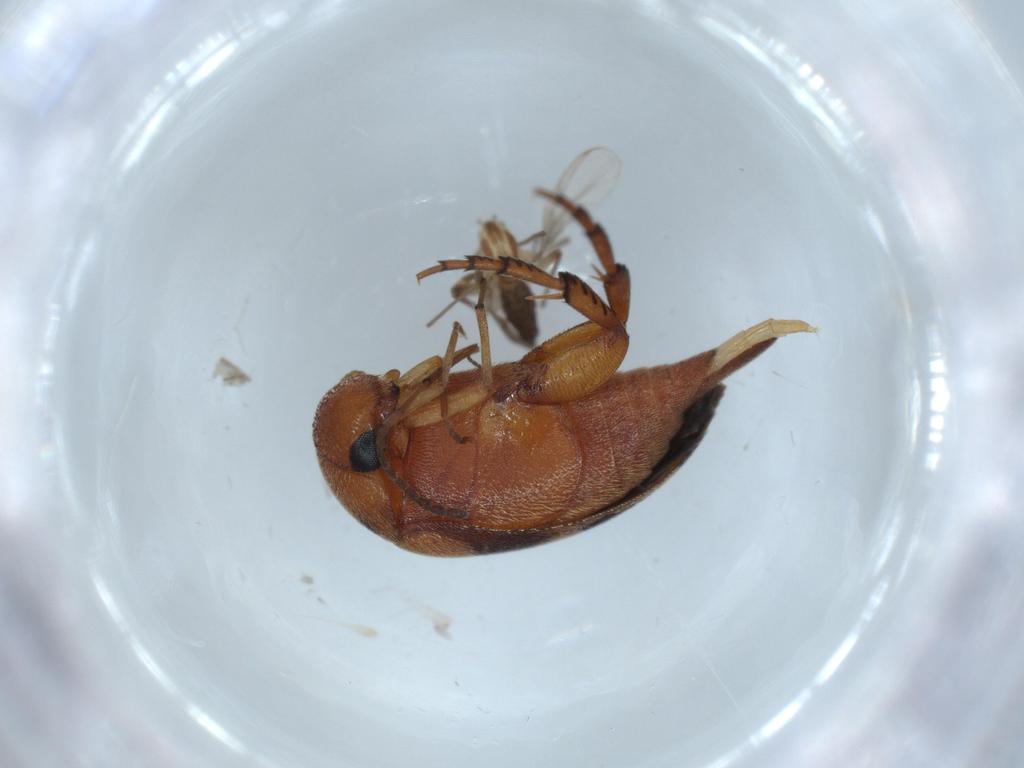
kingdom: Animalia
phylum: Arthropoda
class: Insecta
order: Diptera
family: Chironomidae
